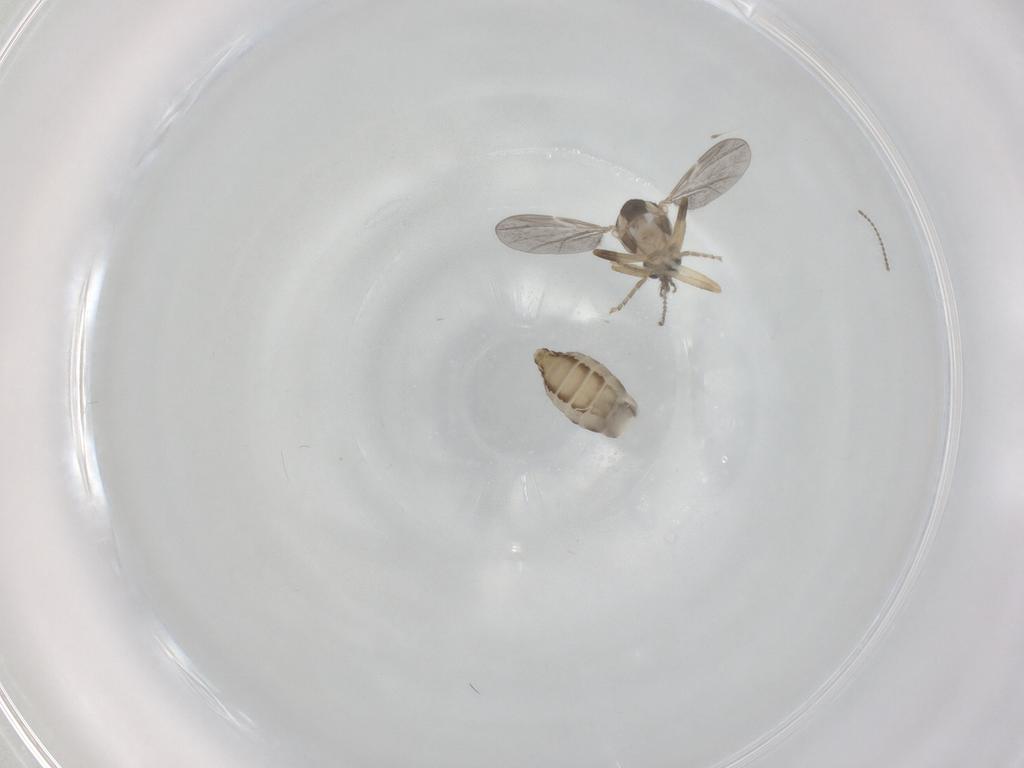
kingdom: Animalia
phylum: Arthropoda
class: Insecta
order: Diptera
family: Ceratopogonidae
